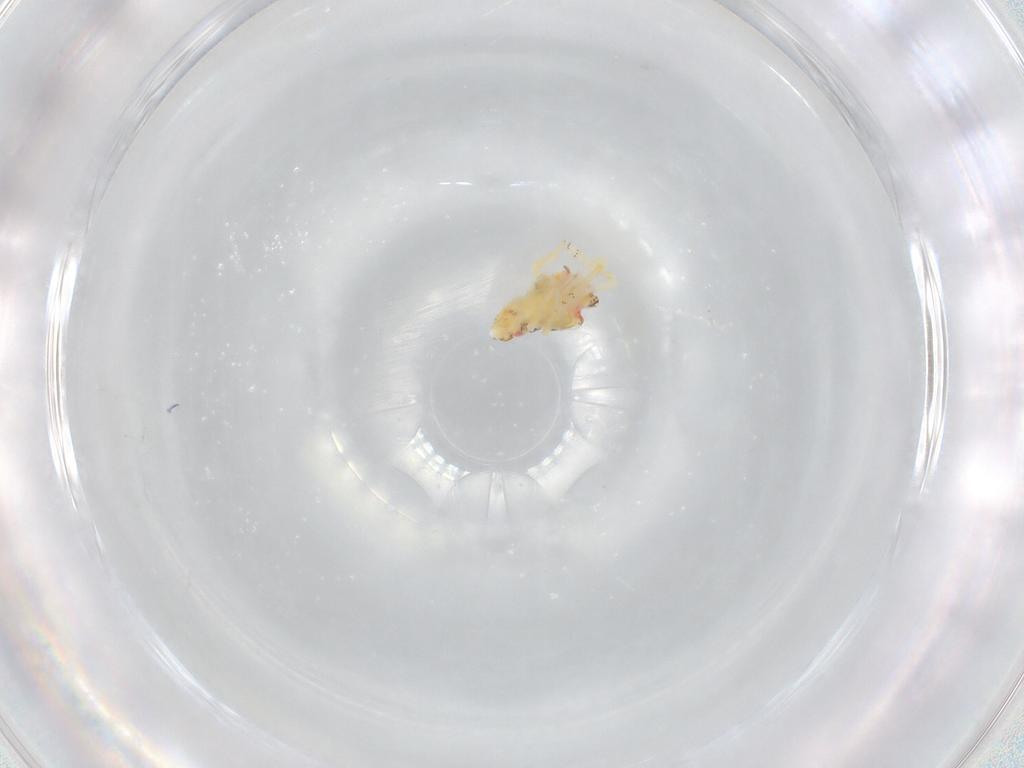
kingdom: Animalia
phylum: Arthropoda
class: Insecta
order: Hemiptera
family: Flatidae
